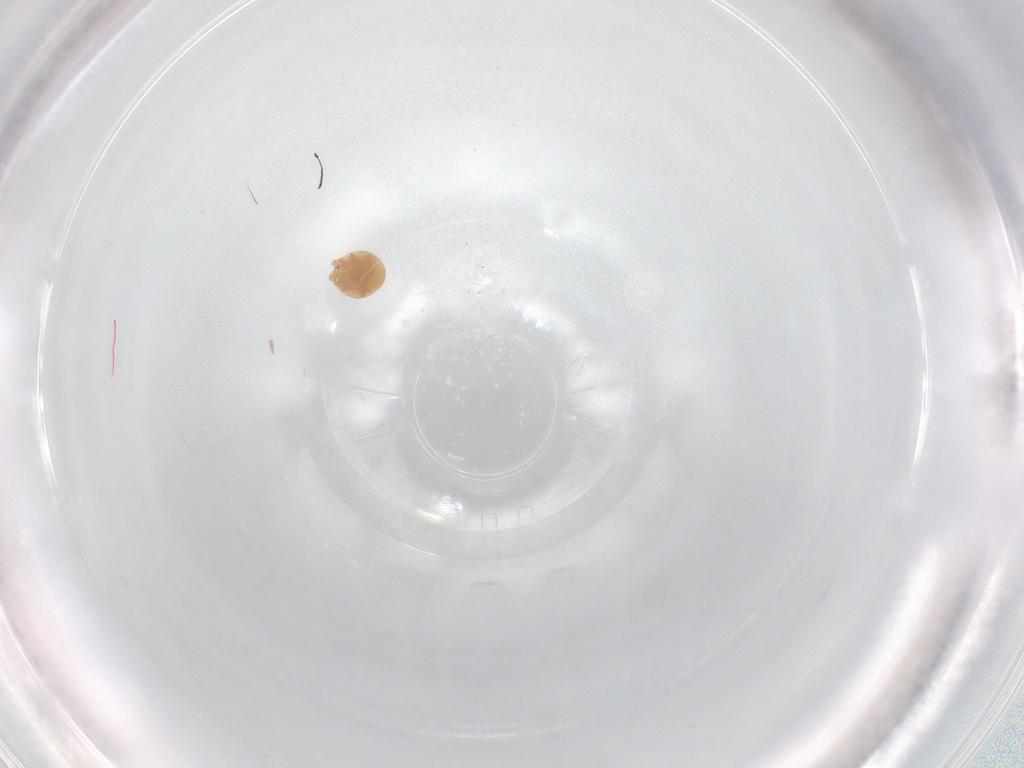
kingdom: Animalia
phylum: Arthropoda
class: Arachnida
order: Mesostigmata
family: Trematuridae
